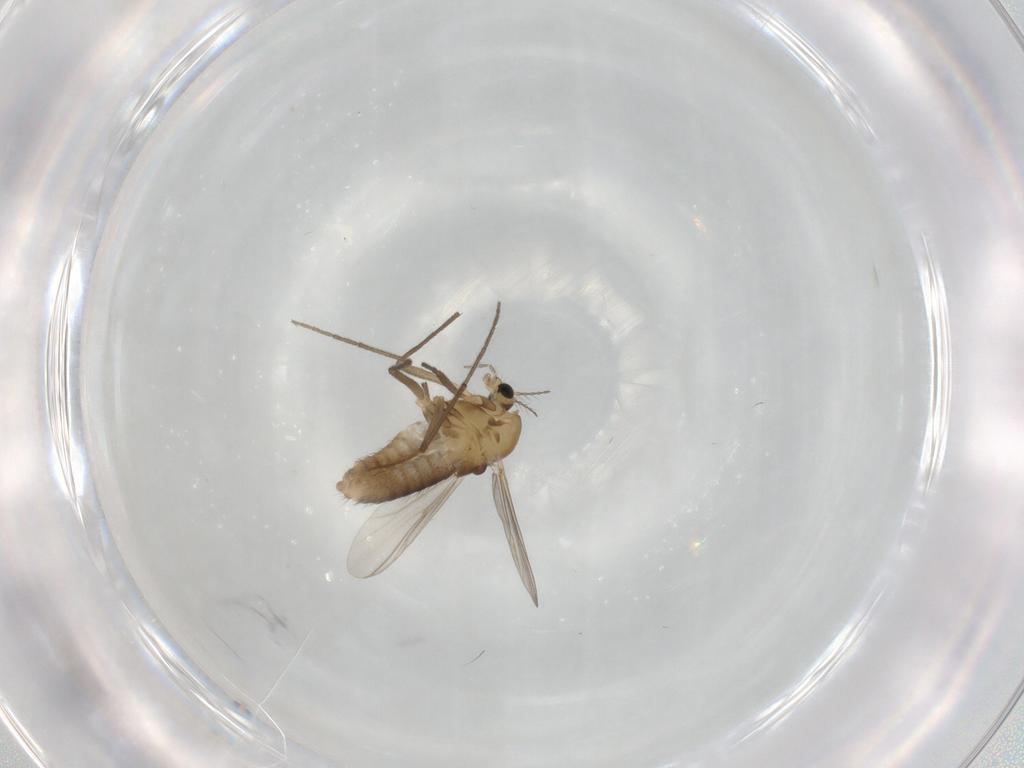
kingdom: Animalia
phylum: Arthropoda
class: Insecta
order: Diptera
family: Chironomidae
